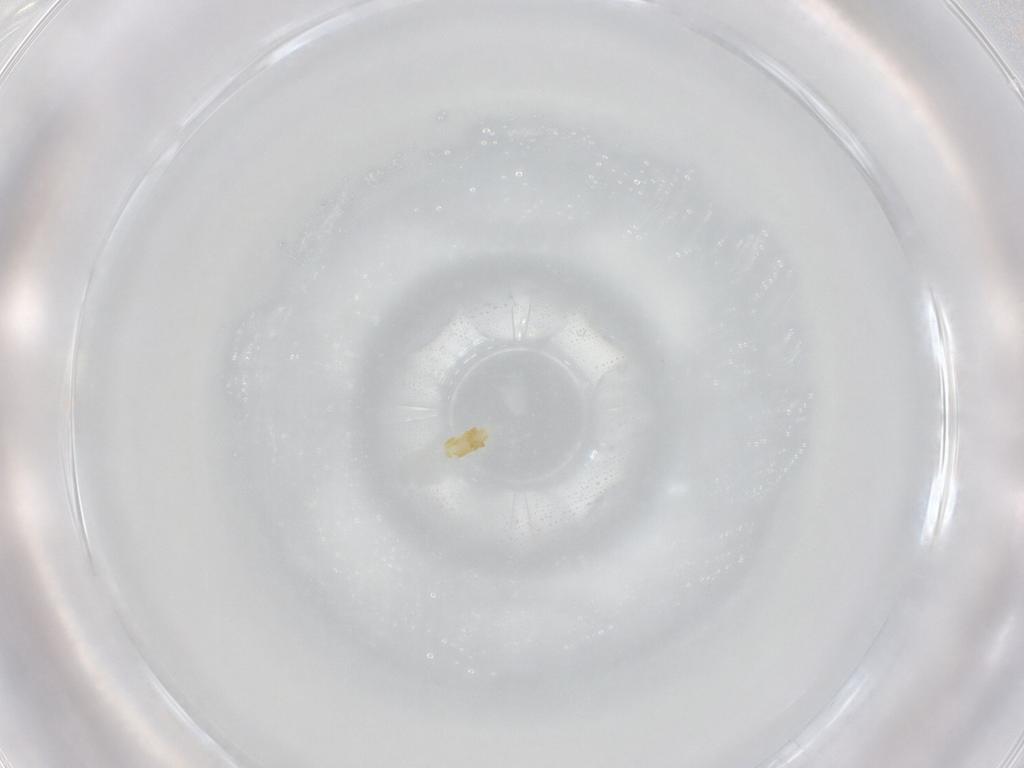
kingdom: Animalia
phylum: Arthropoda
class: Arachnida
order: Trombidiformes
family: Eupodidae
